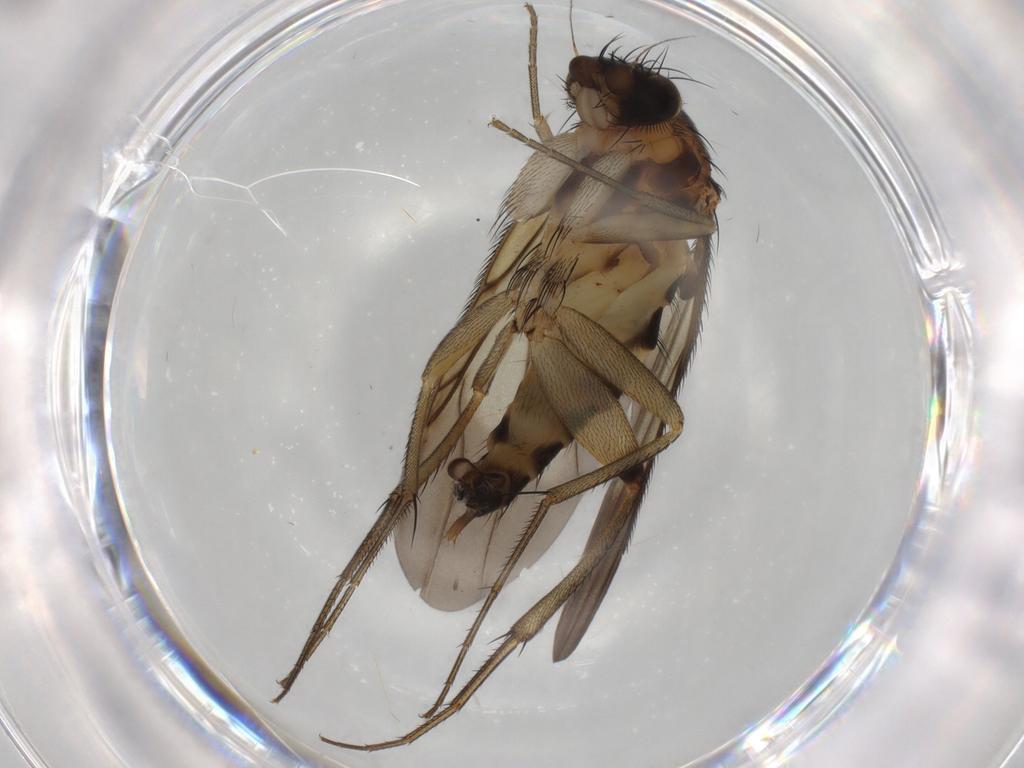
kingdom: Animalia
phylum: Arthropoda
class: Insecta
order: Diptera
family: Phoridae
